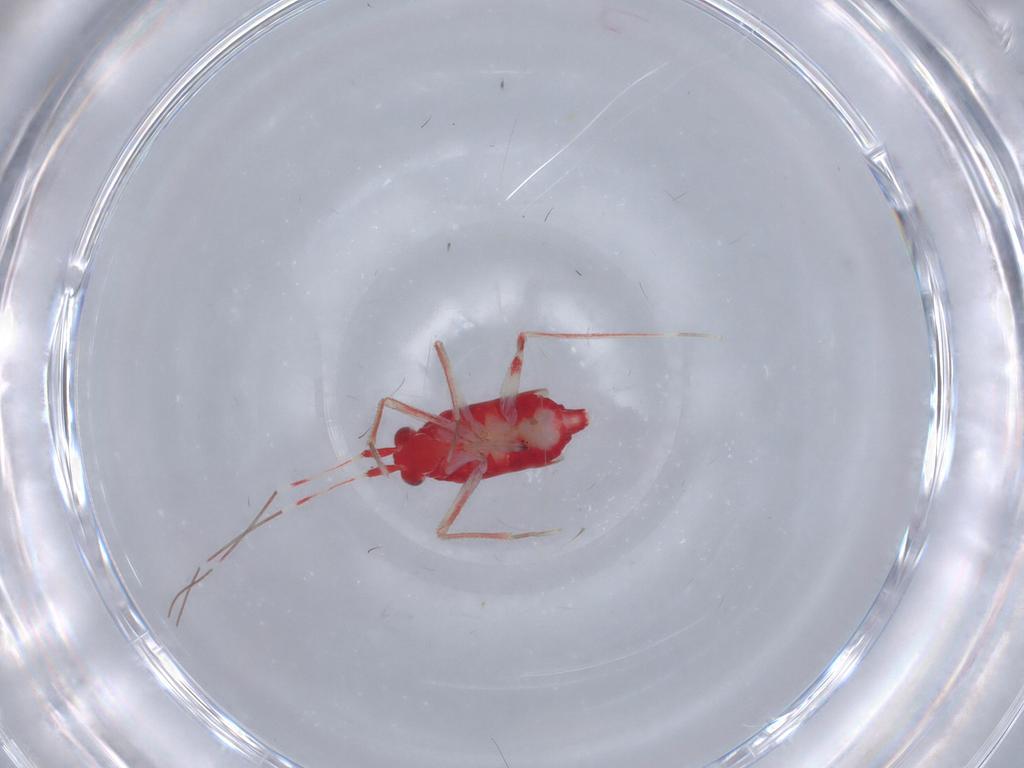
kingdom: Animalia
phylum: Arthropoda
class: Insecta
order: Hemiptera
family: Miridae
